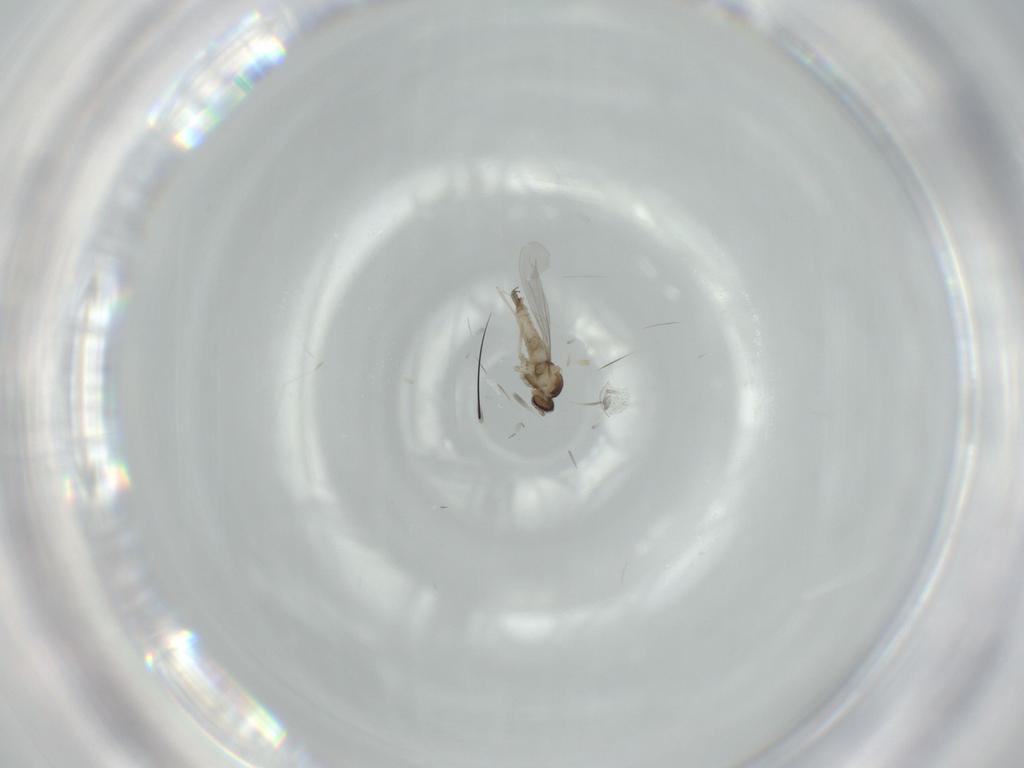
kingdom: Animalia
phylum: Arthropoda
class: Insecta
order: Diptera
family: Cecidomyiidae
